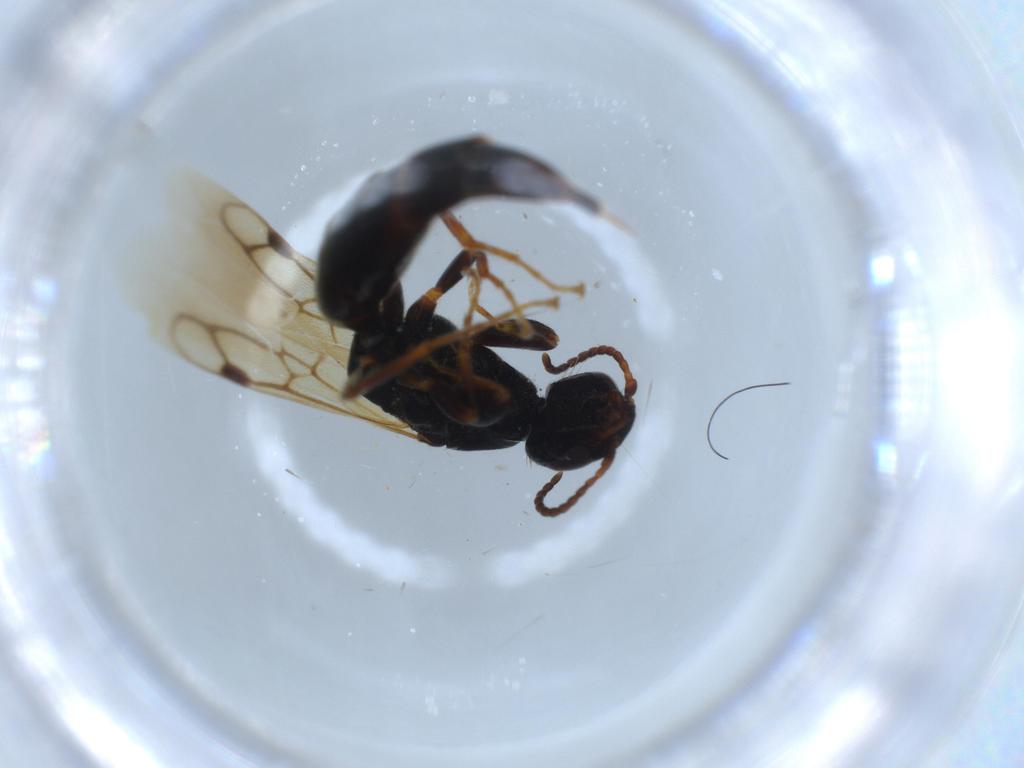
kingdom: Animalia
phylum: Arthropoda
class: Insecta
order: Hymenoptera
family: Bethylidae
